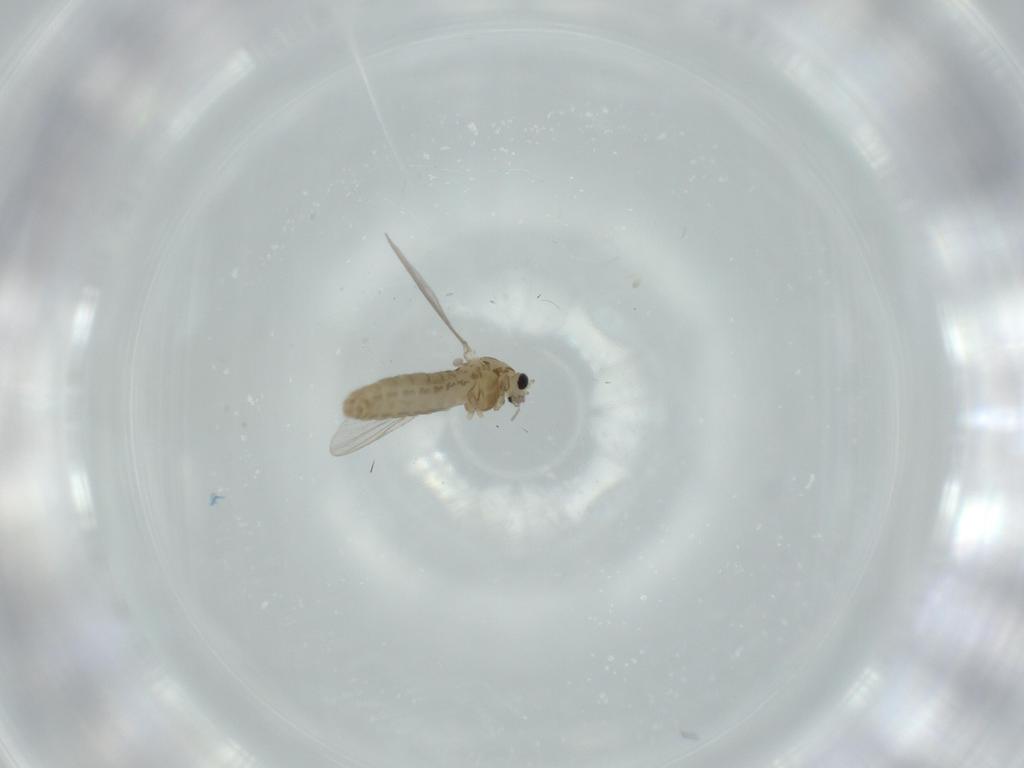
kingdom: Animalia
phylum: Arthropoda
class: Insecta
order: Diptera
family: Chironomidae
